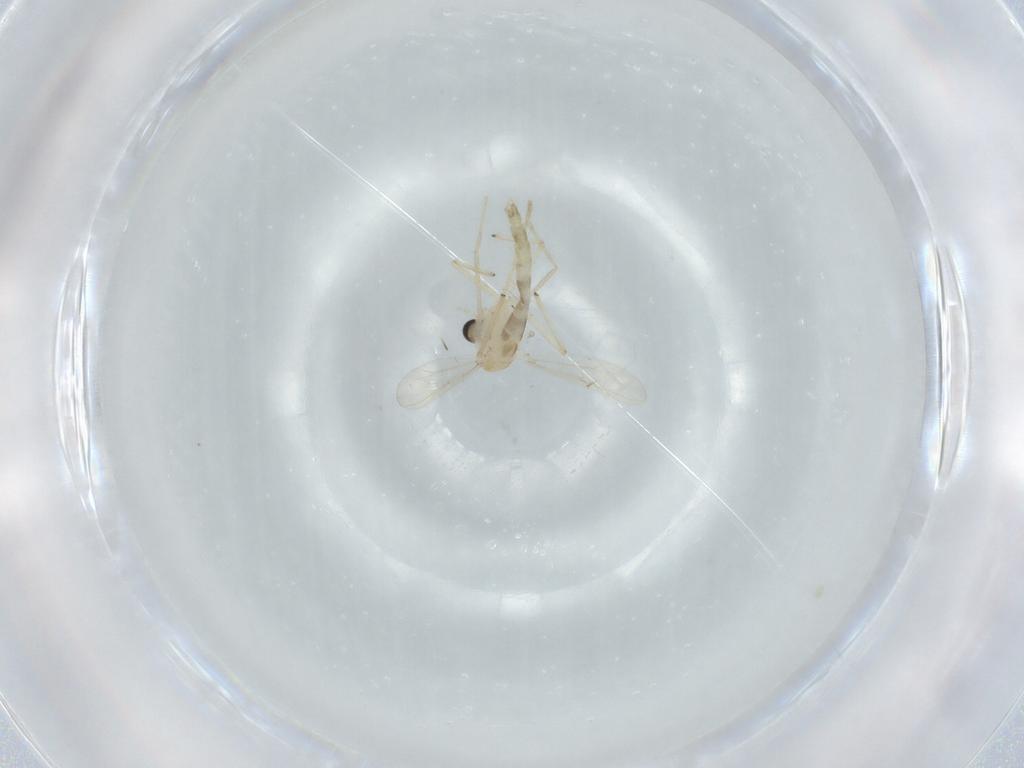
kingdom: Animalia
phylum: Arthropoda
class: Insecta
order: Diptera
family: Chironomidae
